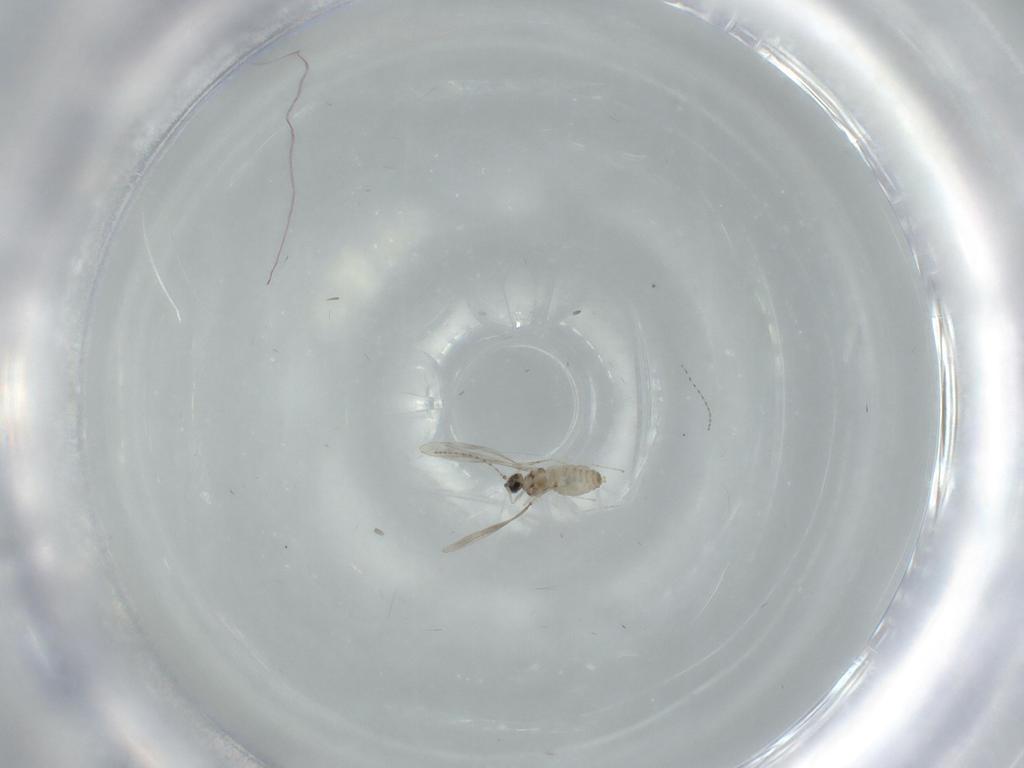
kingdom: Animalia
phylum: Arthropoda
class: Insecta
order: Diptera
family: Cecidomyiidae
